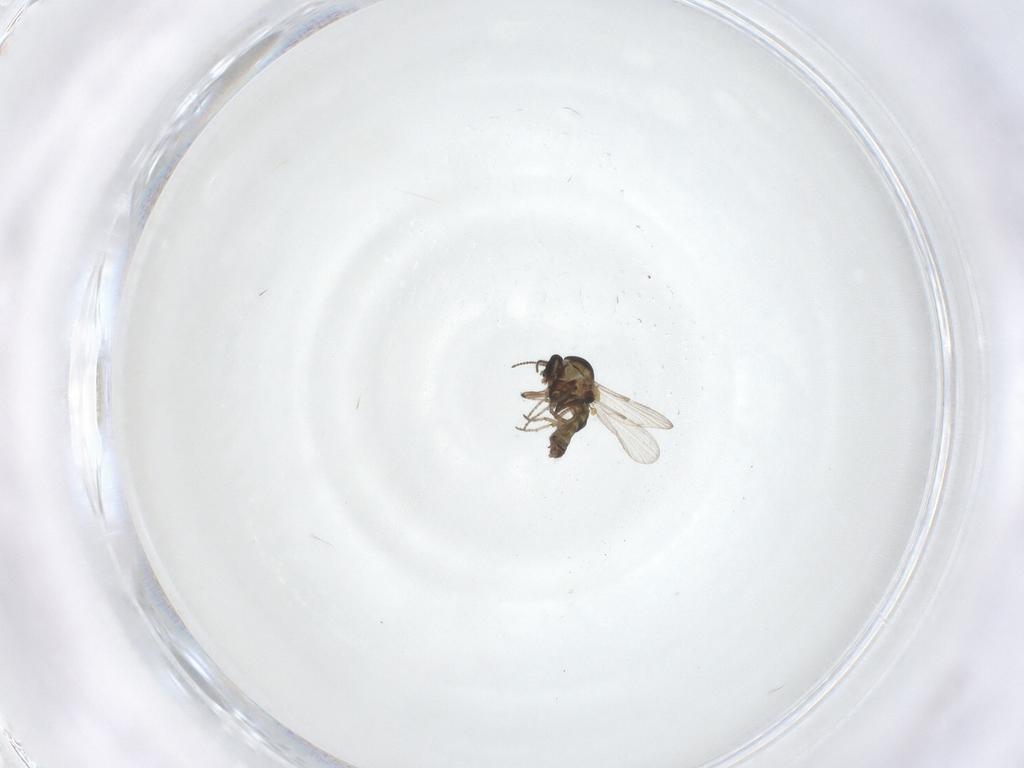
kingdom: Animalia
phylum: Arthropoda
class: Insecta
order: Diptera
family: Ceratopogonidae
